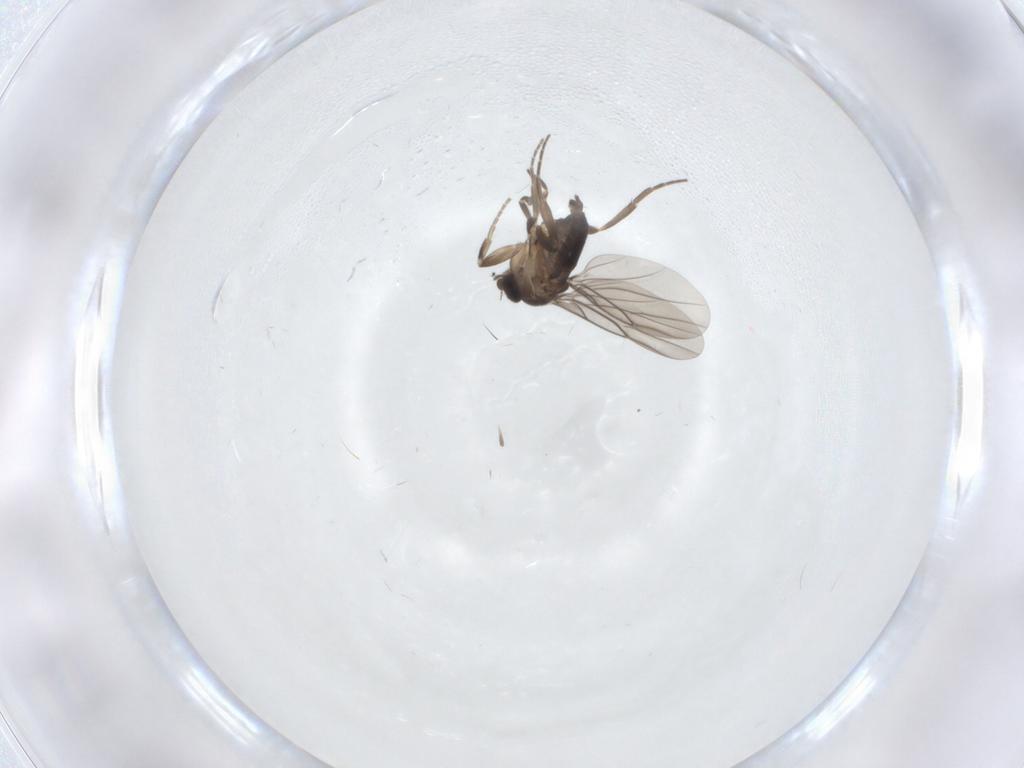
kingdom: Animalia
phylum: Arthropoda
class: Insecta
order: Diptera
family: Phoridae
